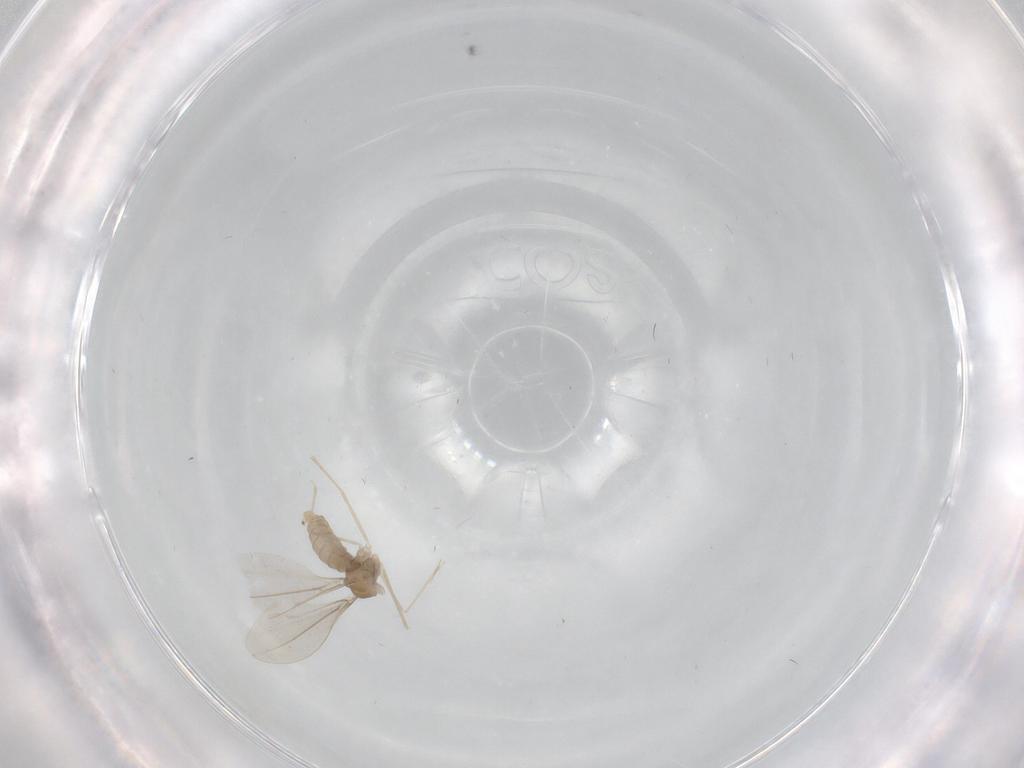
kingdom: Animalia
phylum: Arthropoda
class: Insecta
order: Diptera
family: Cecidomyiidae
